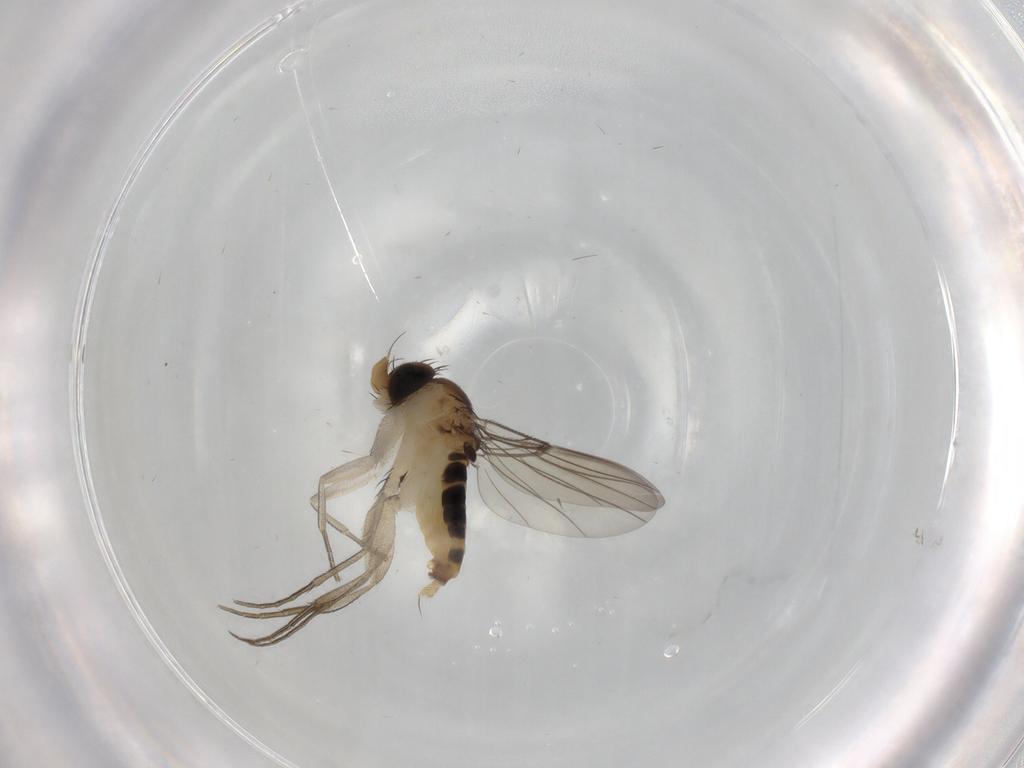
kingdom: Animalia
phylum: Arthropoda
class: Insecta
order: Diptera
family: Phoridae
